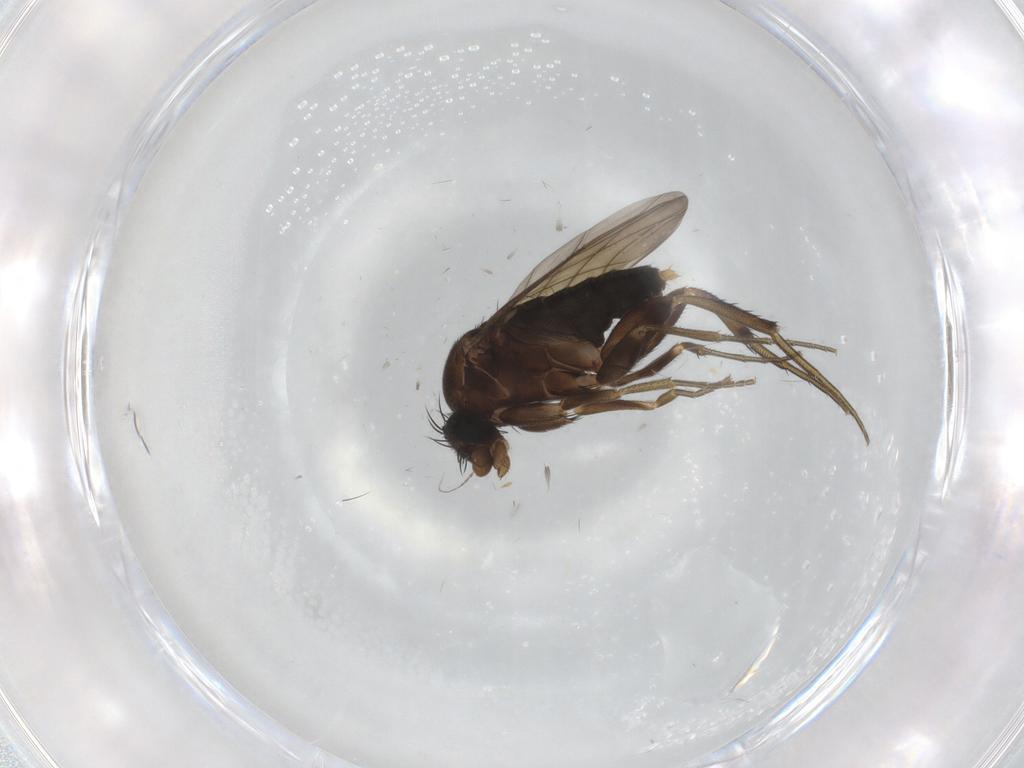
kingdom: Animalia
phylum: Arthropoda
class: Insecta
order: Diptera
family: Phoridae
